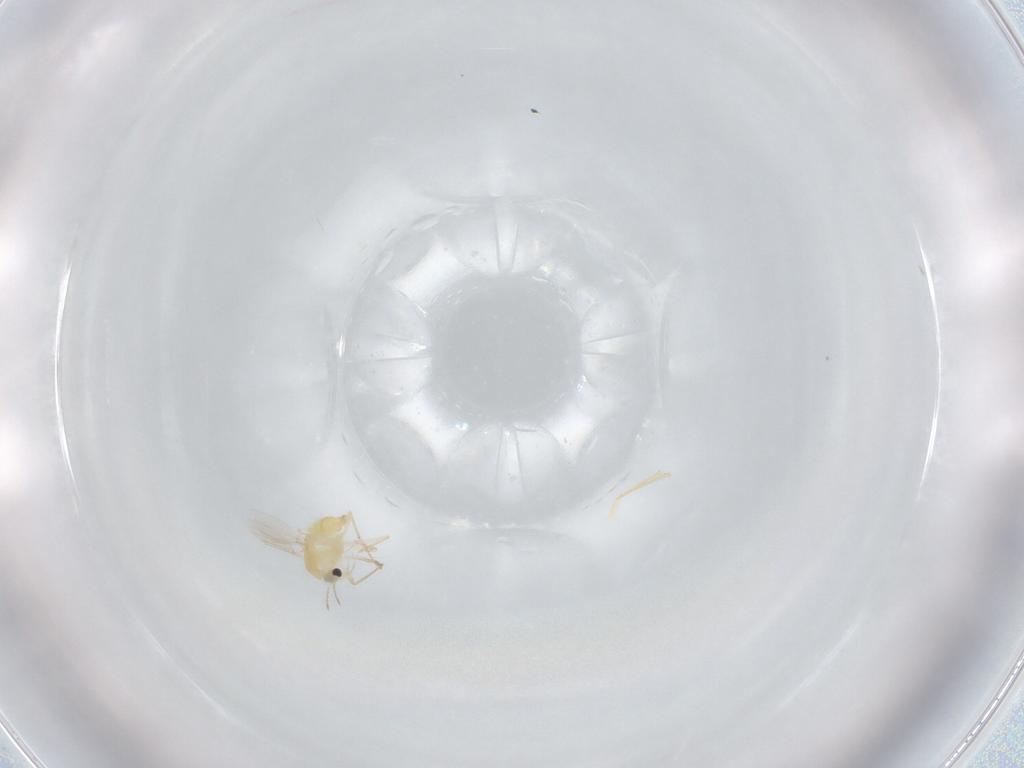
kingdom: Animalia
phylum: Arthropoda
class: Insecta
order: Diptera
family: Chironomidae
